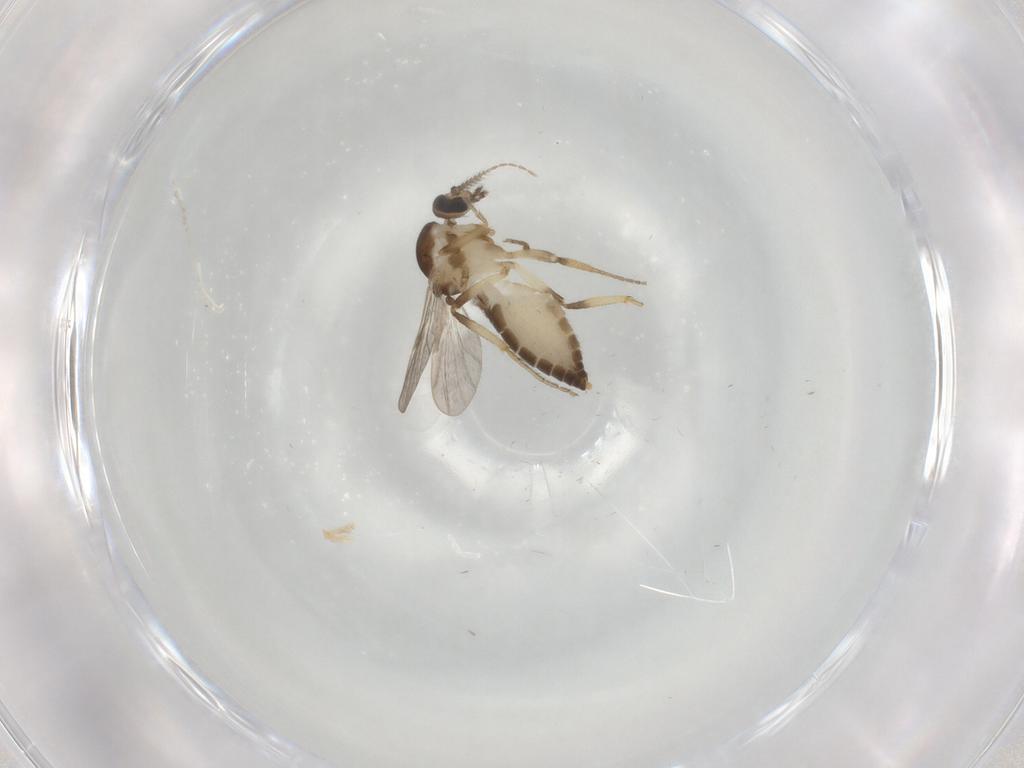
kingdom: Animalia
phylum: Arthropoda
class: Insecta
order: Diptera
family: Ceratopogonidae
